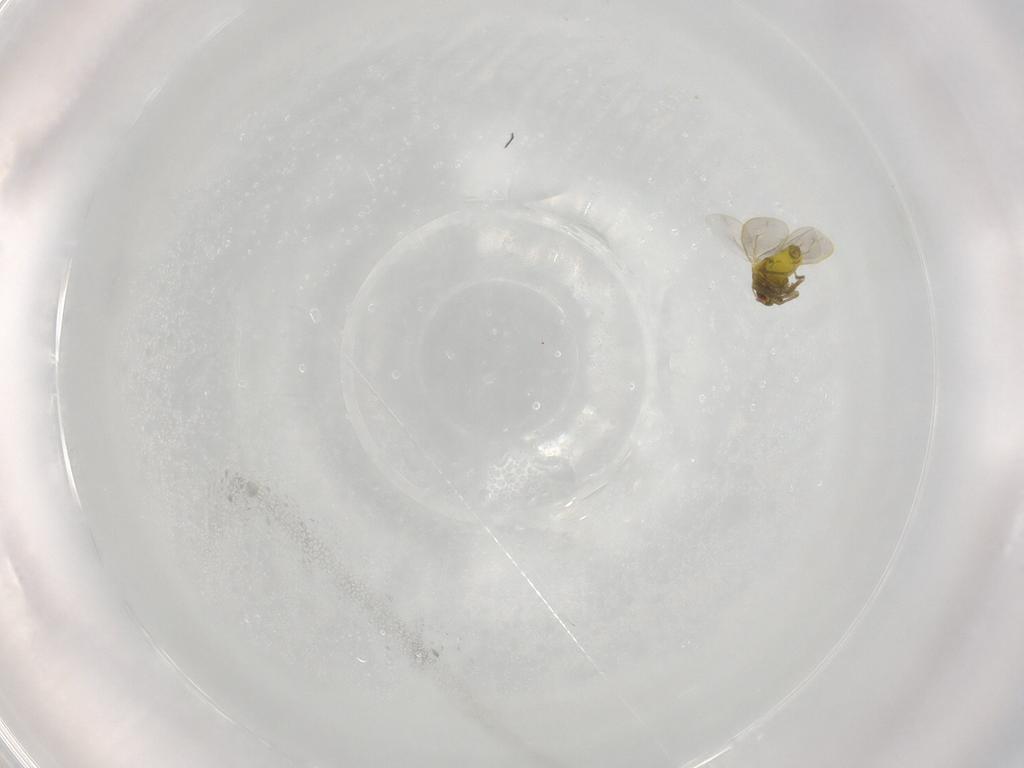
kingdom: Animalia
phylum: Arthropoda
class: Insecta
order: Hemiptera
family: Aleyrodidae
